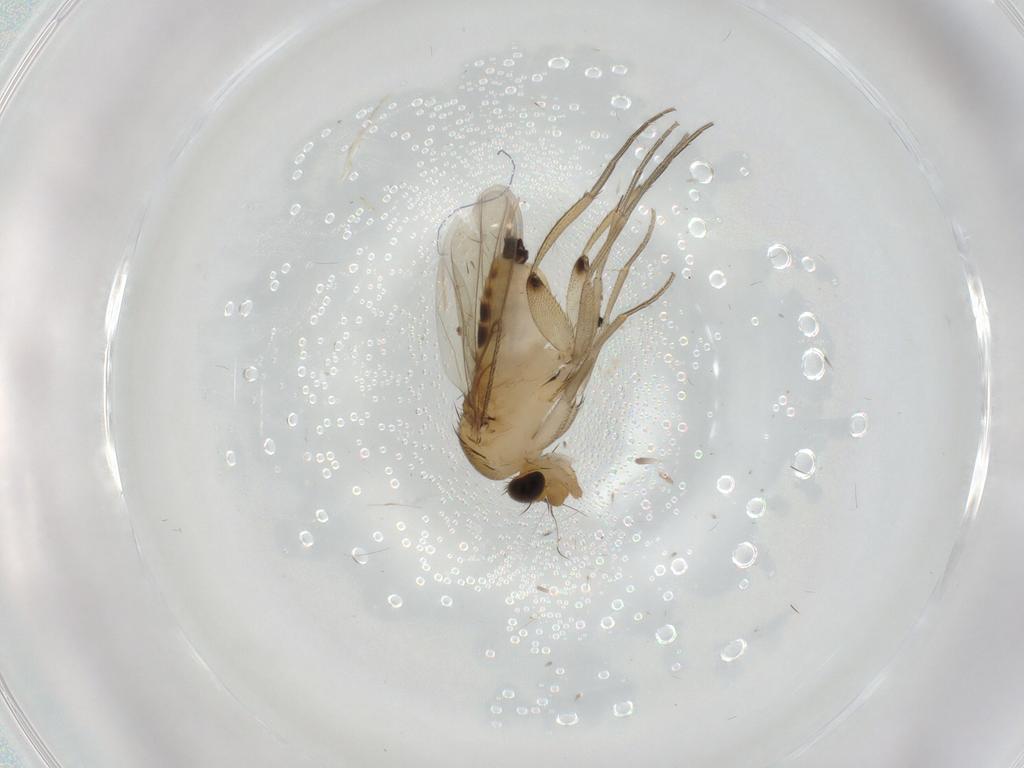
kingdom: Animalia
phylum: Arthropoda
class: Insecta
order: Diptera
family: Phoridae
